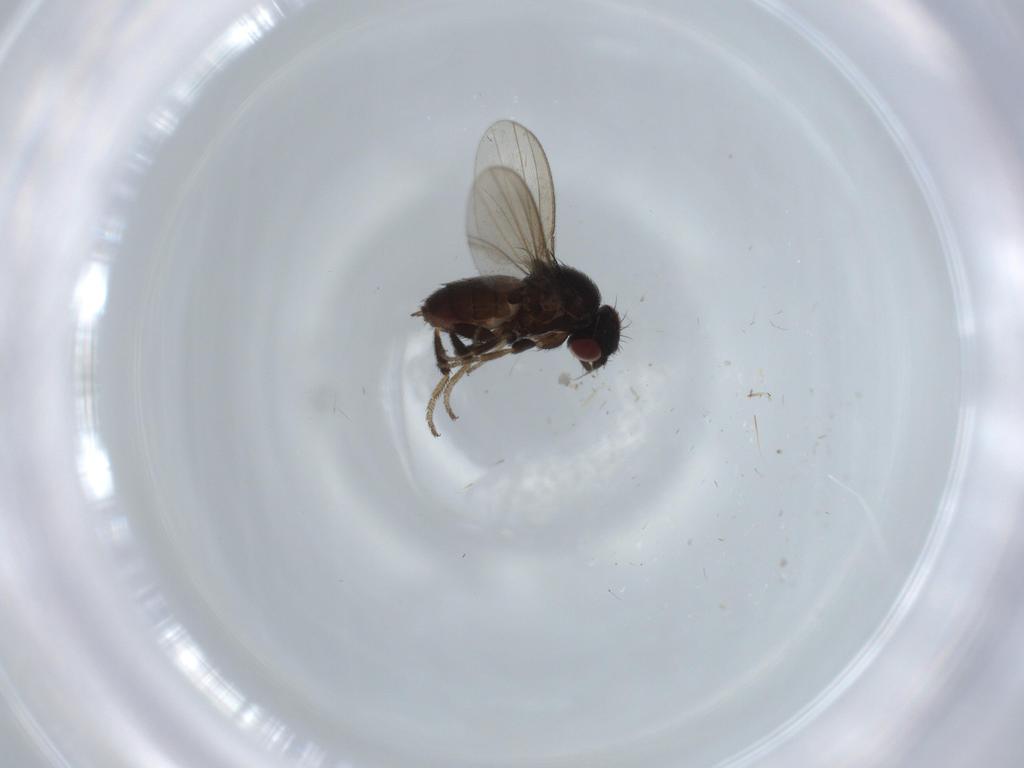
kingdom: Animalia
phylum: Arthropoda
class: Insecta
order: Diptera
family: Milichiidae
